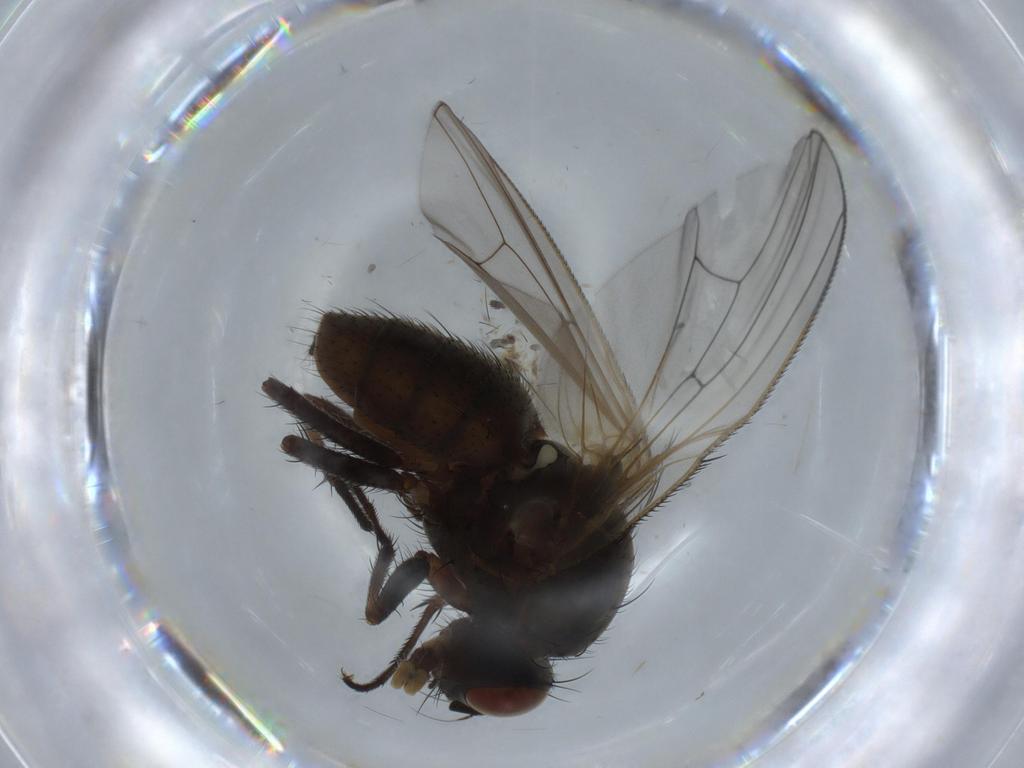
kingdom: Animalia
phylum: Arthropoda
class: Insecta
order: Diptera
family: Anthomyiidae
